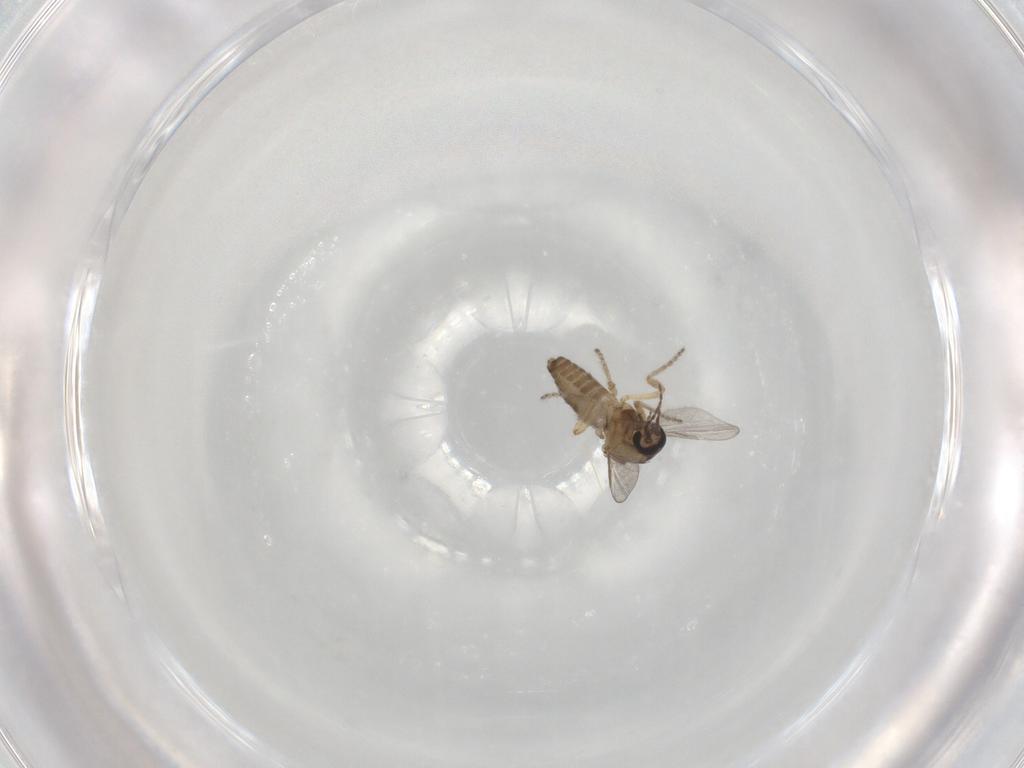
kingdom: Animalia
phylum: Arthropoda
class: Insecta
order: Diptera
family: Ceratopogonidae
